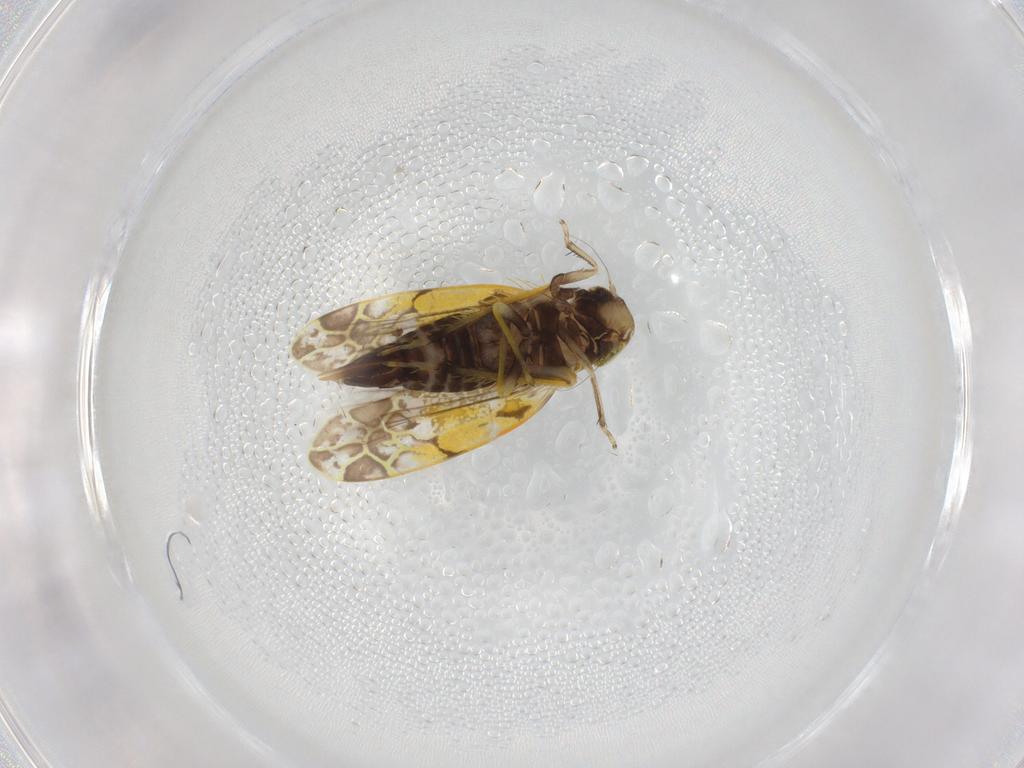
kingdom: Animalia
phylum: Arthropoda
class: Insecta
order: Hemiptera
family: Cicadellidae
